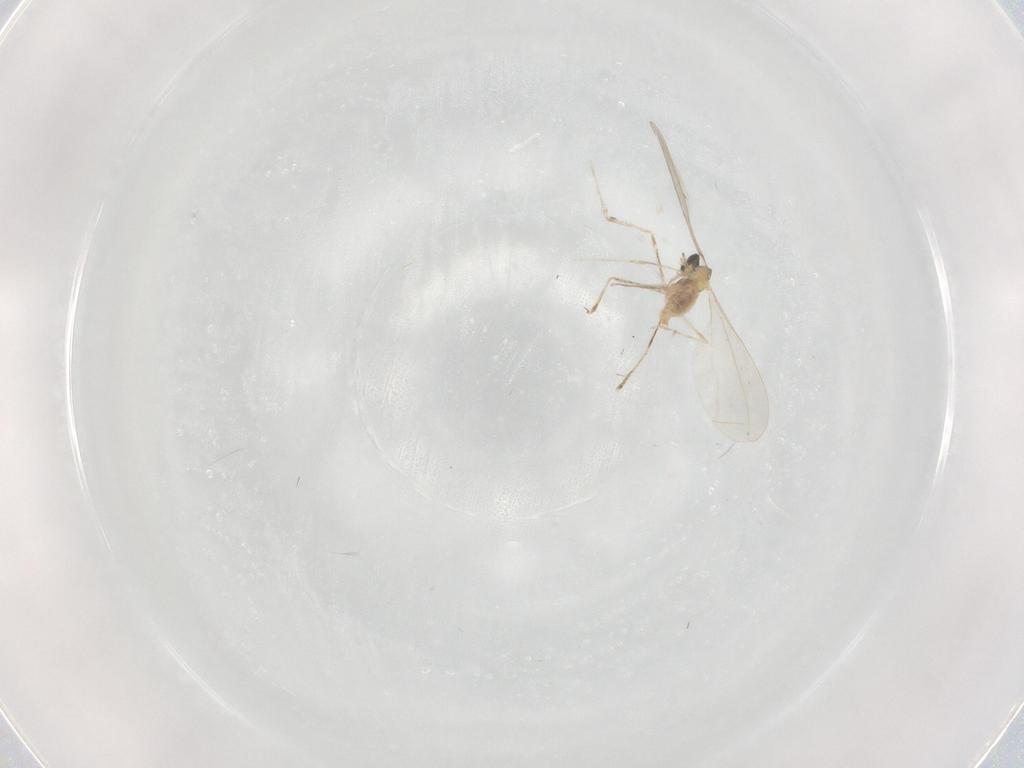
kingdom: Animalia
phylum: Arthropoda
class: Insecta
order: Diptera
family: Cecidomyiidae
